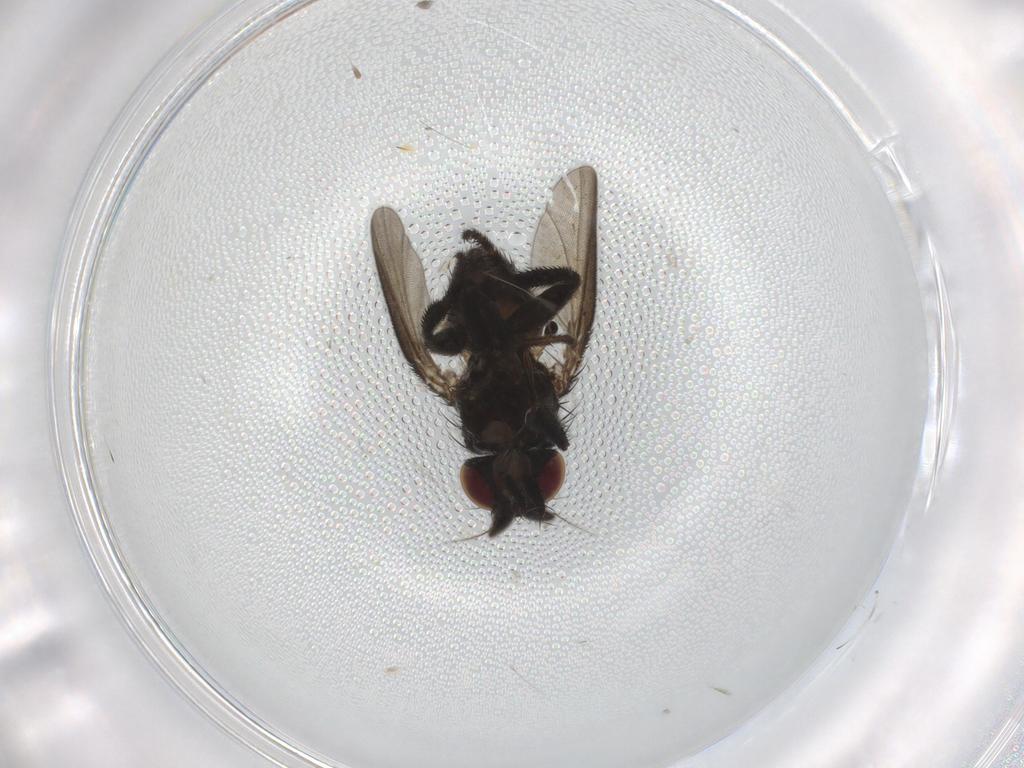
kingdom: Animalia
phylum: Arthropoda
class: Insecta
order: Diptera
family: Milichiidae
